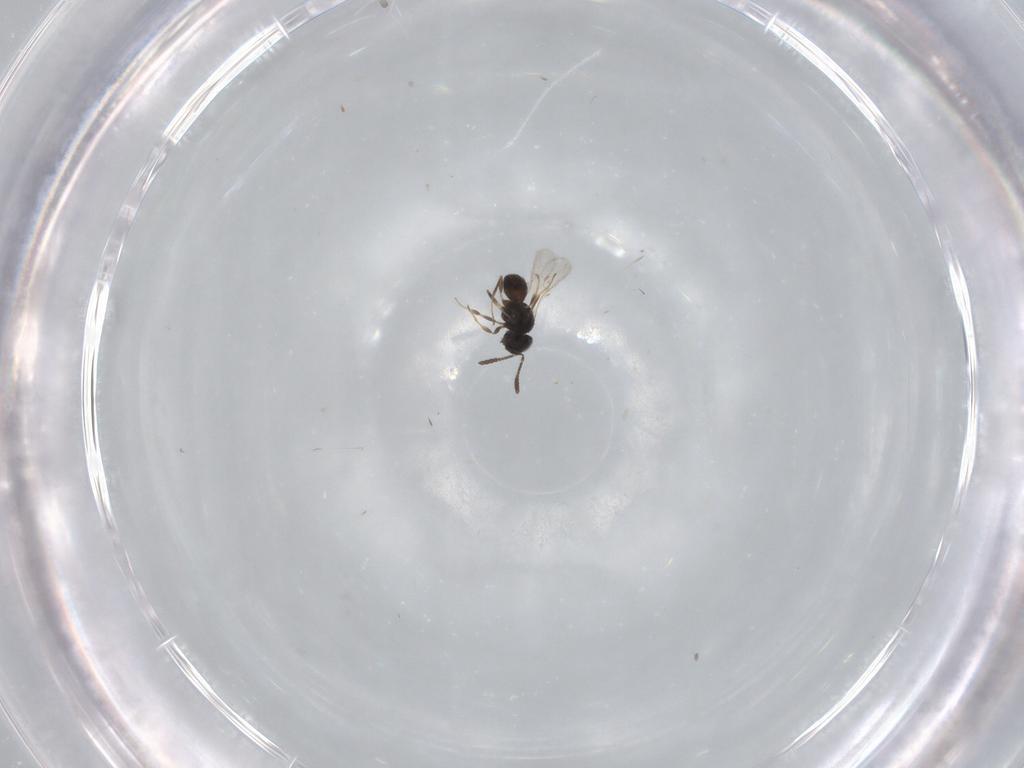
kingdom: Animalia
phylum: Arthropoda
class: Insecta
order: Hymenoptera
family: Scelionidae
